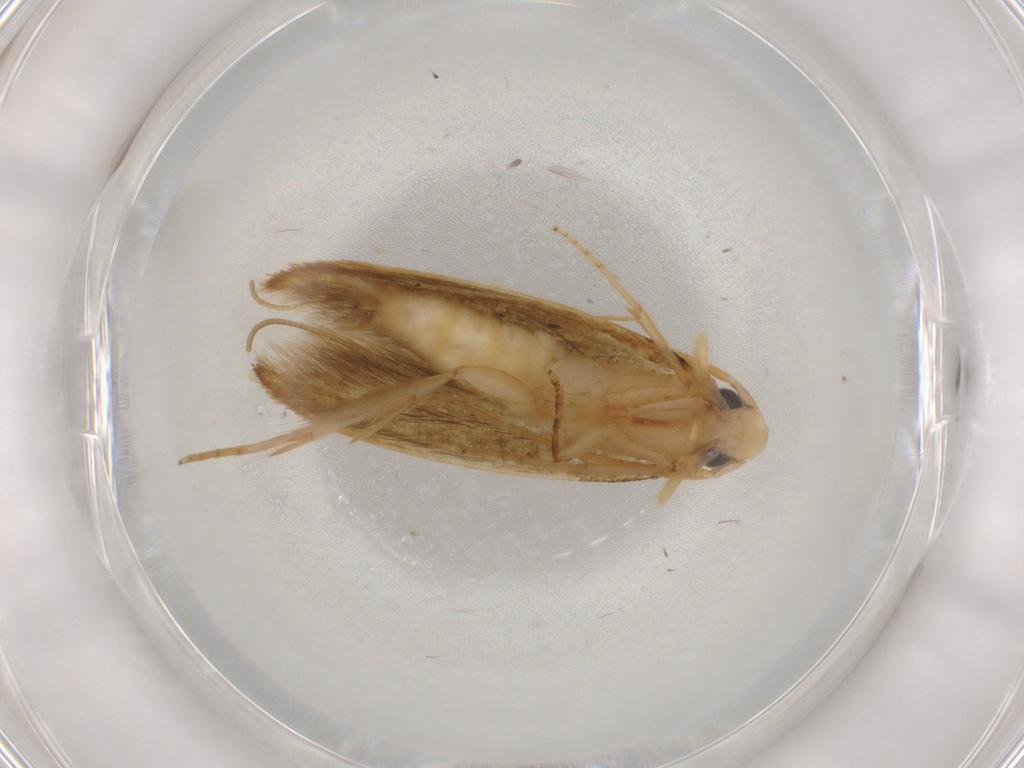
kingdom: Animalia
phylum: Arthropoda
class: Insecta
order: Lepidoptera
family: Tineidae
